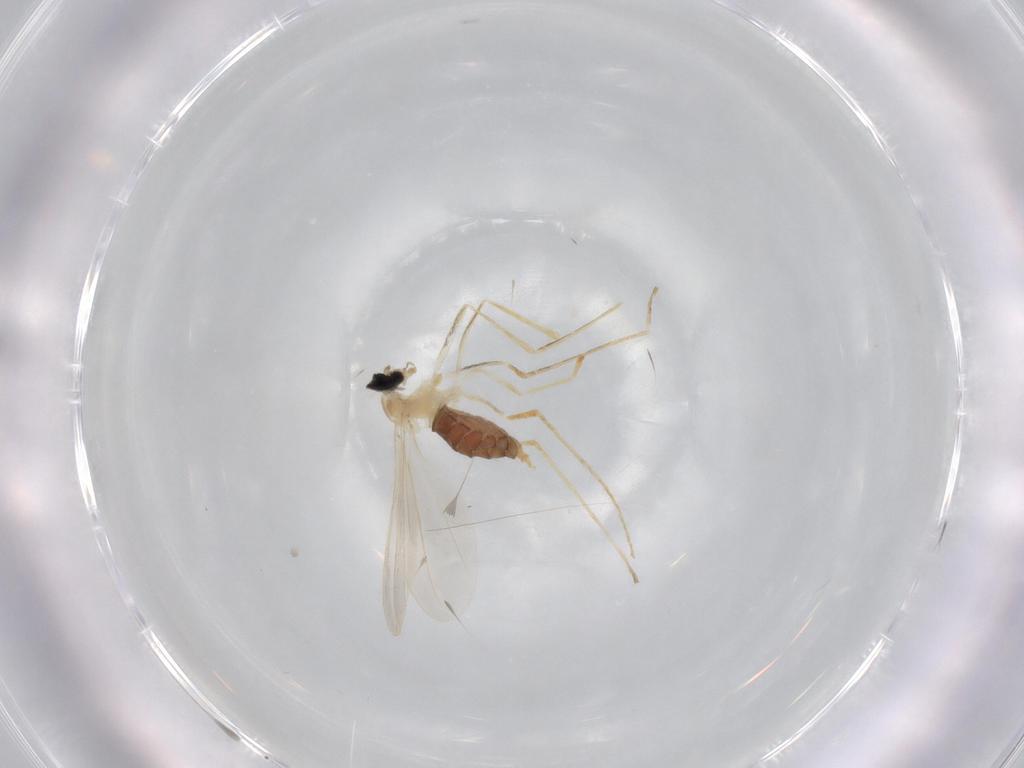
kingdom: Animalia
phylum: Arthropoda
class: Insecta
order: Diptera
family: Cecidomyiidae
